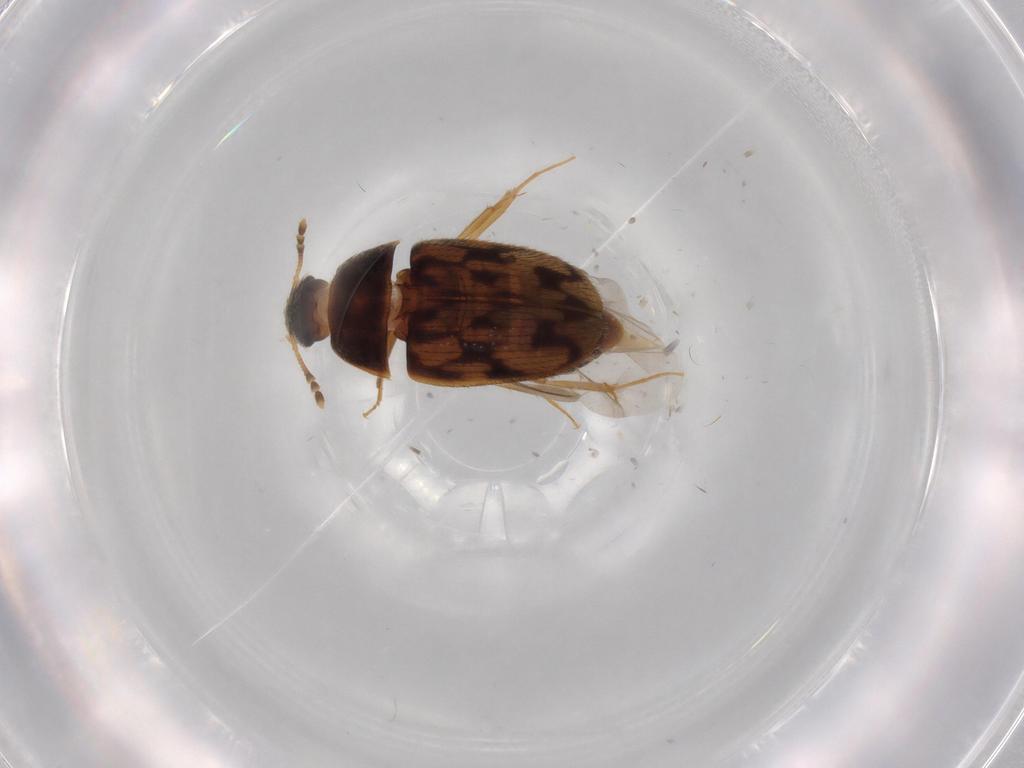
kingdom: Animalia
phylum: Arthropoda
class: Insecta
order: Coleoptera
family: Mycetophagidae
